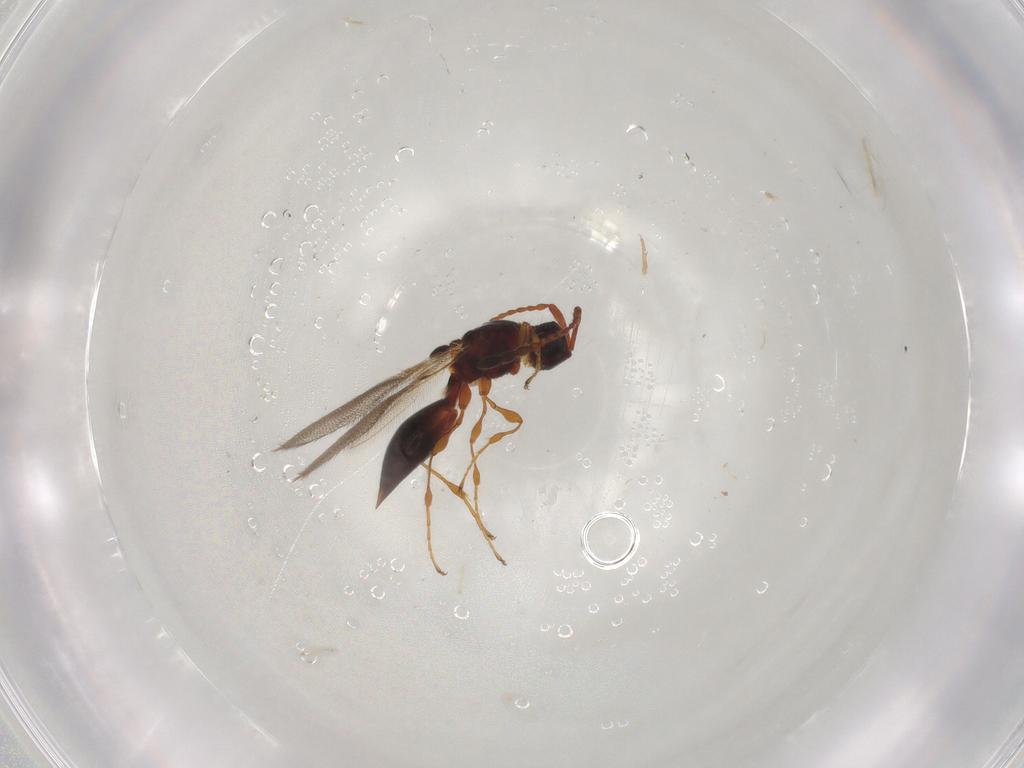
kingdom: Animalia
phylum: Arthropoda
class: Insecta
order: Hymenoptera
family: Diapriidae
